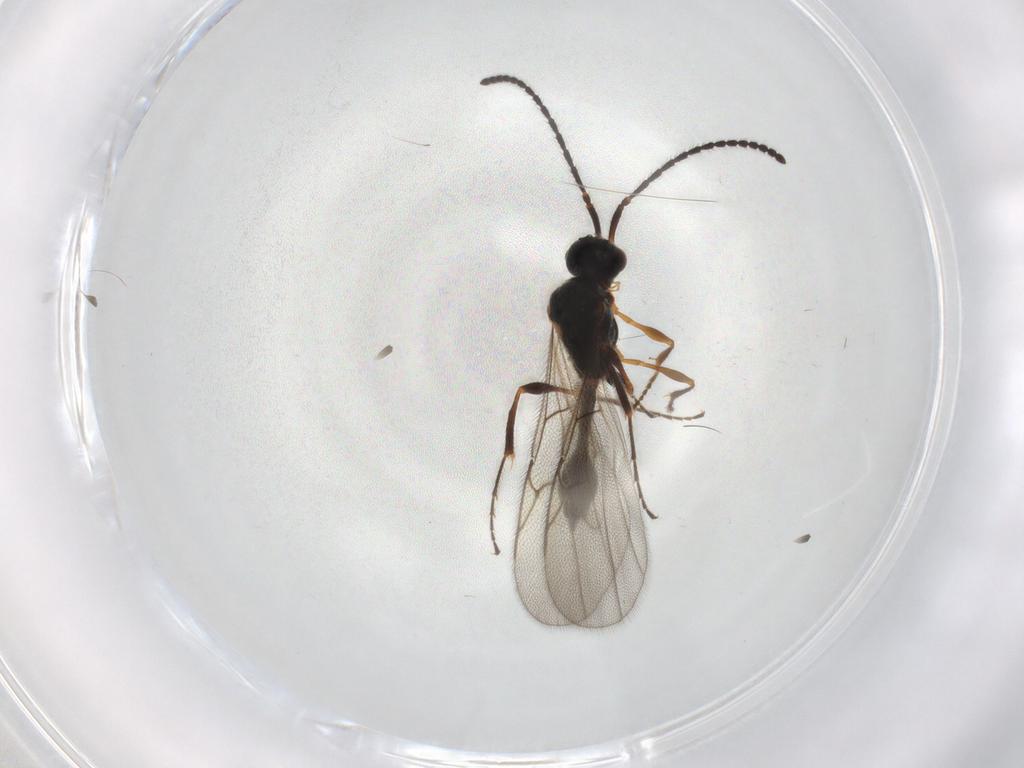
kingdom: Animalia
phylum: Arthropoda
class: Insecta
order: Hymenoptera
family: Diapriidae
